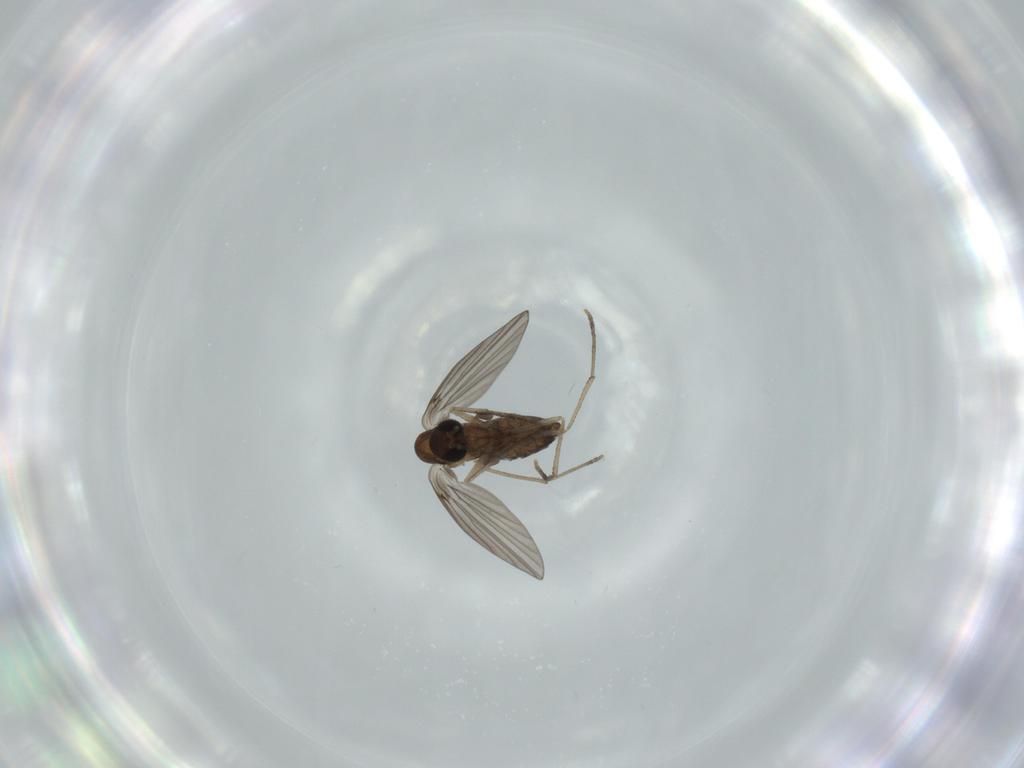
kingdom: Animalia
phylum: Arthropoda
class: Insecta
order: Diptera
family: Psychodidae
